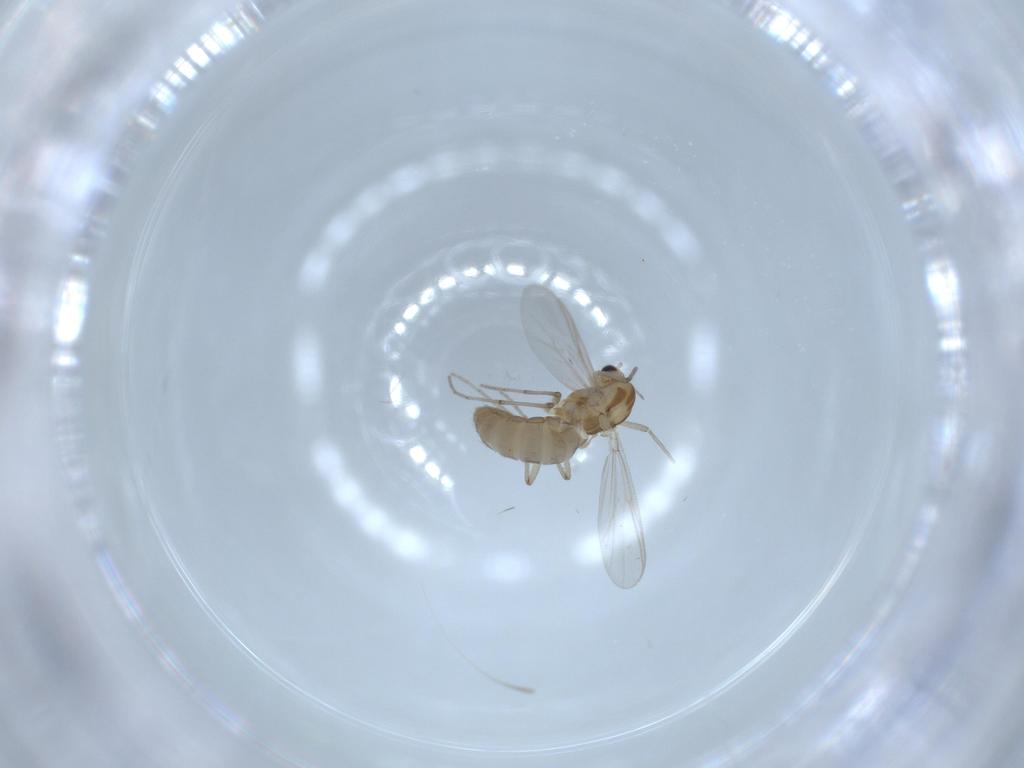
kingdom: Animalia
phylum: Arthropoda
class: Insecta
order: Diptera
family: Chironomidae
